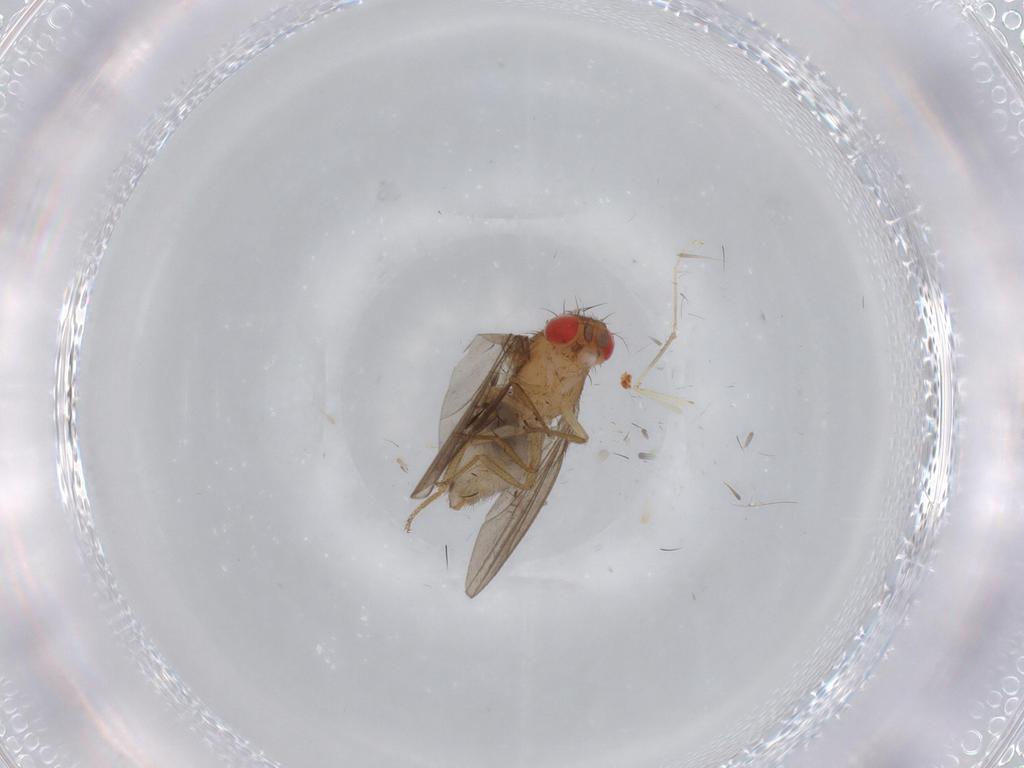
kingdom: Animalia
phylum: Arthropoda
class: Insecta
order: Diptera
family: Drosophilidae
